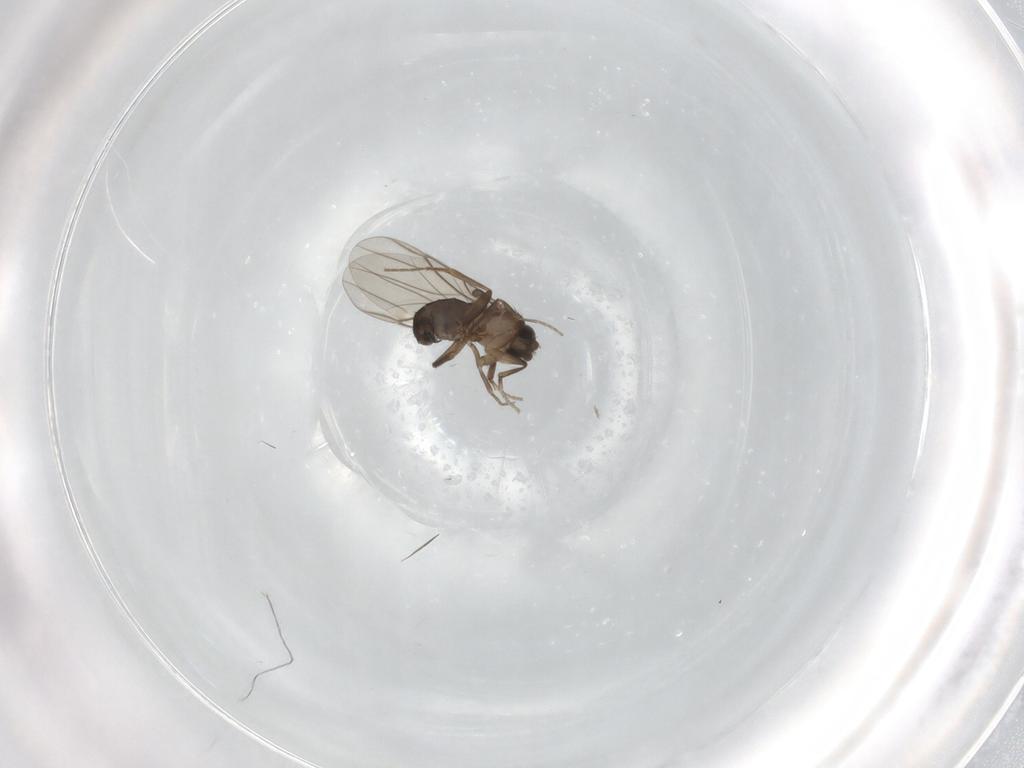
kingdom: Animalia
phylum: Arthropoda
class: Insecta
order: Diptera
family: Phoridae
